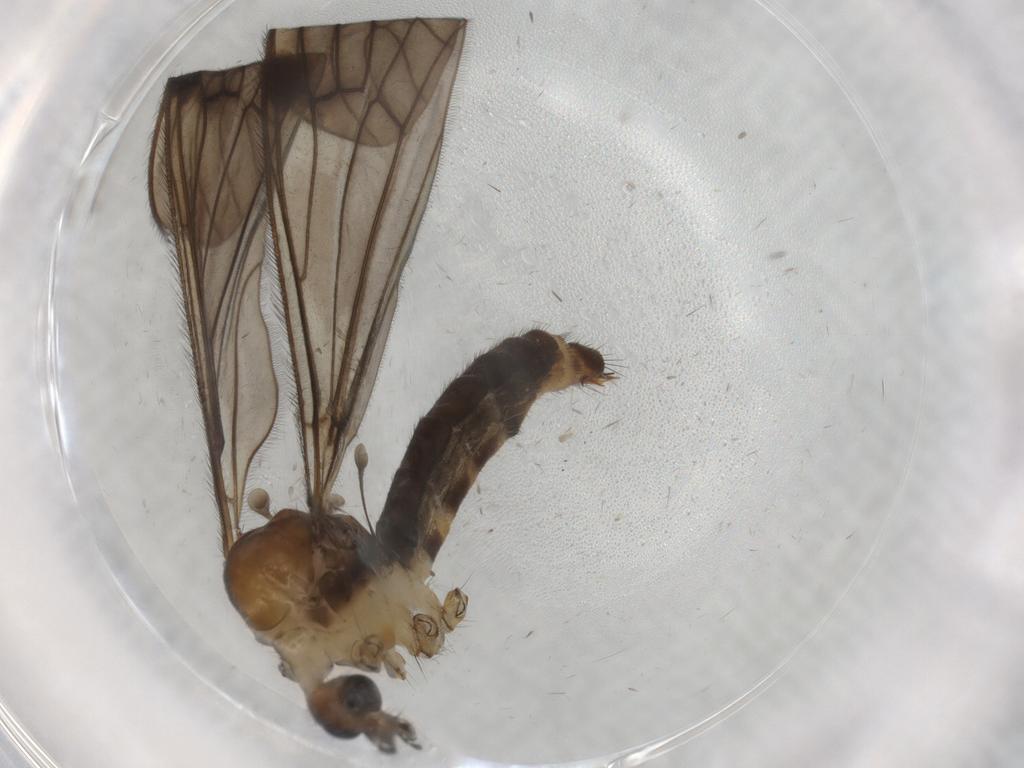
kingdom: Animalia
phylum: Arthropoda
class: Insecta
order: Diptera
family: Limoniidae
